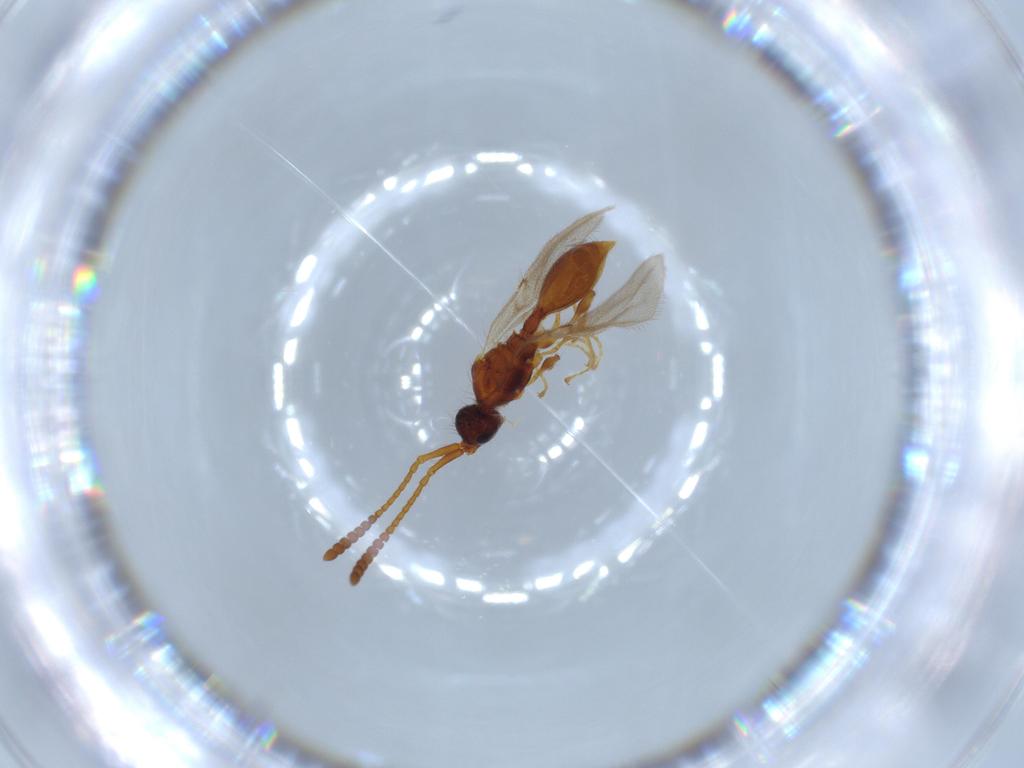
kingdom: Animalia
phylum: Arthropoda
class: Insecta
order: Hymenoptera
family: Diapriidae
